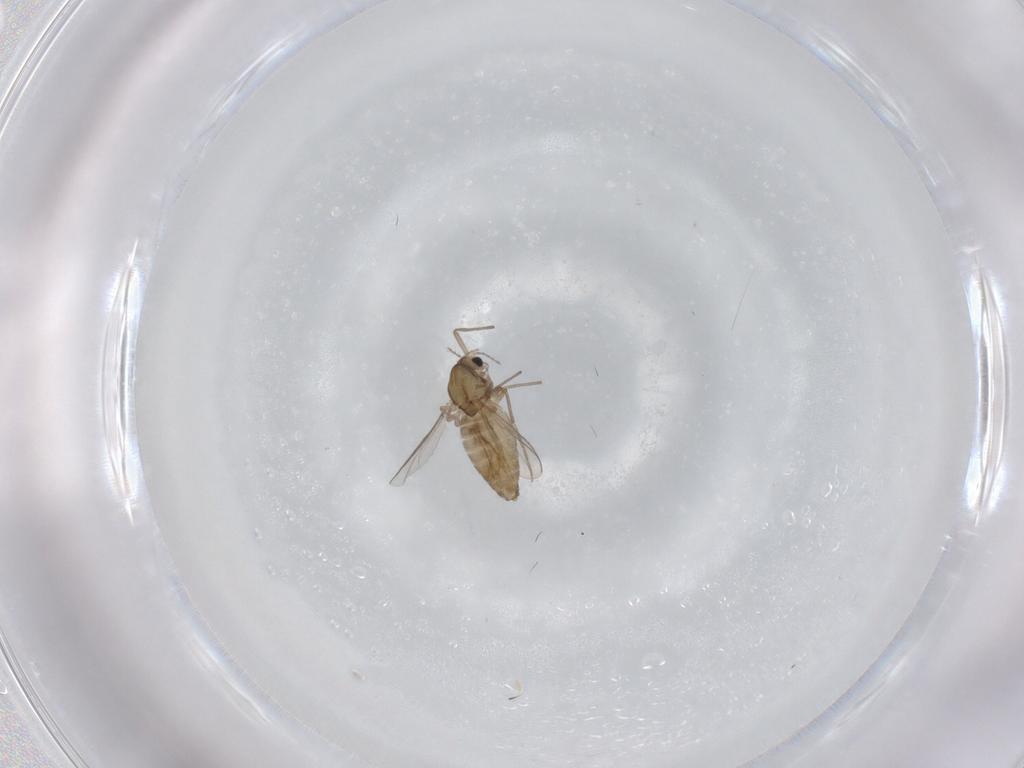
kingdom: Animalia
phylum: Arthropoda
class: Insecta
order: Diptera
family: Chironomidae
